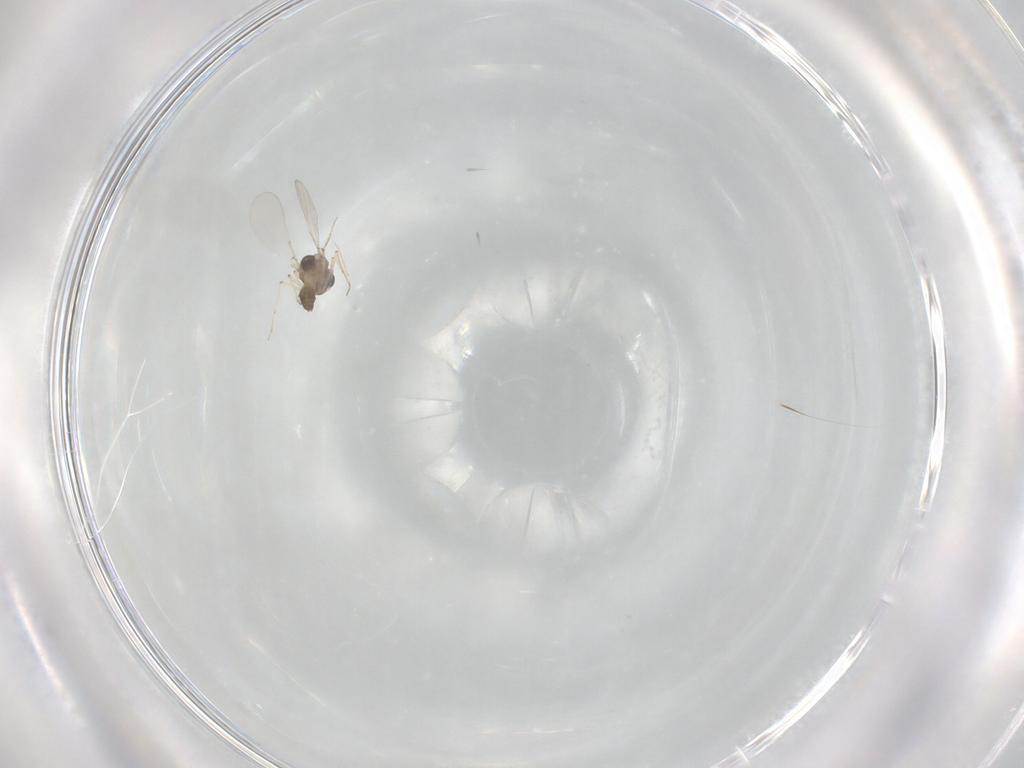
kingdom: Animalia
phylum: Arthropoda
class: Insecta
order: Diptera
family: Chironomidae
